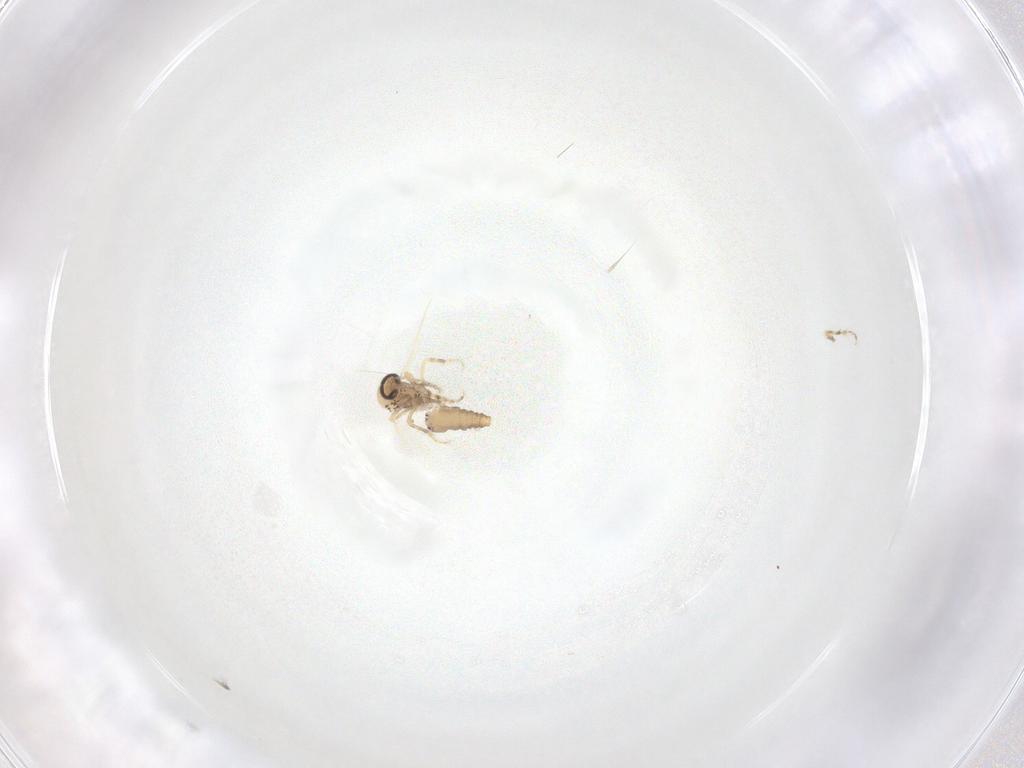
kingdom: Animalia
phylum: Arthropoda
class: Insecta
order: Diptera
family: Ceratopogonidae
